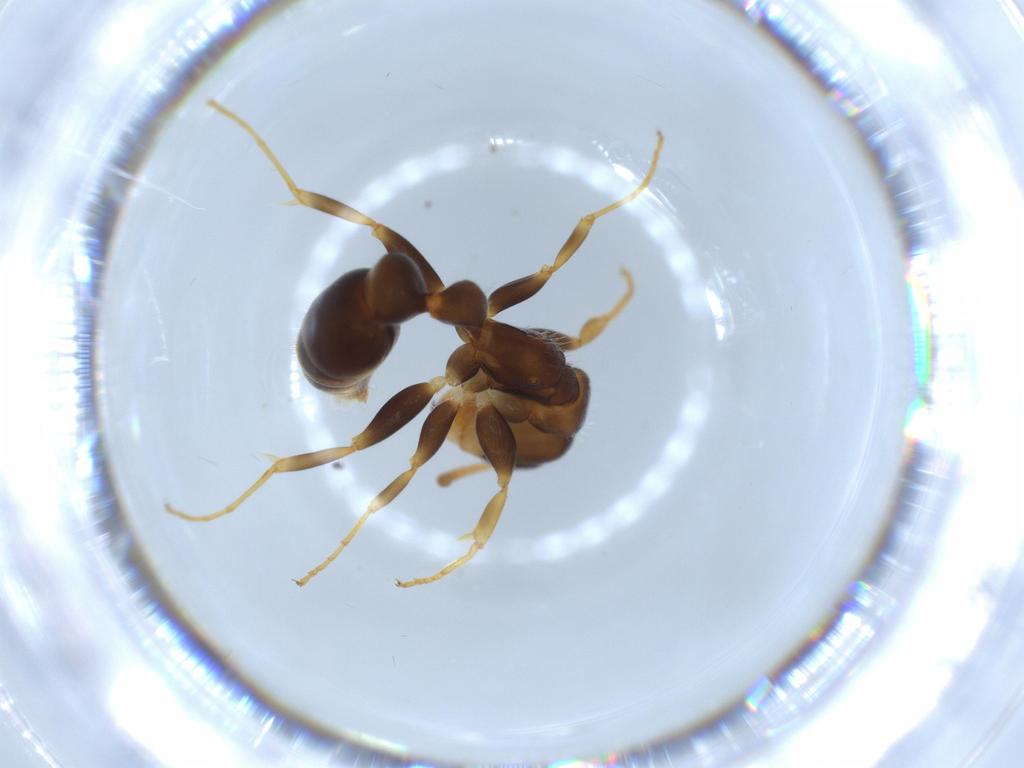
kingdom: Animalia
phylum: Arthropoda
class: Insecta
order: Hymenoptera
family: Formicidae
